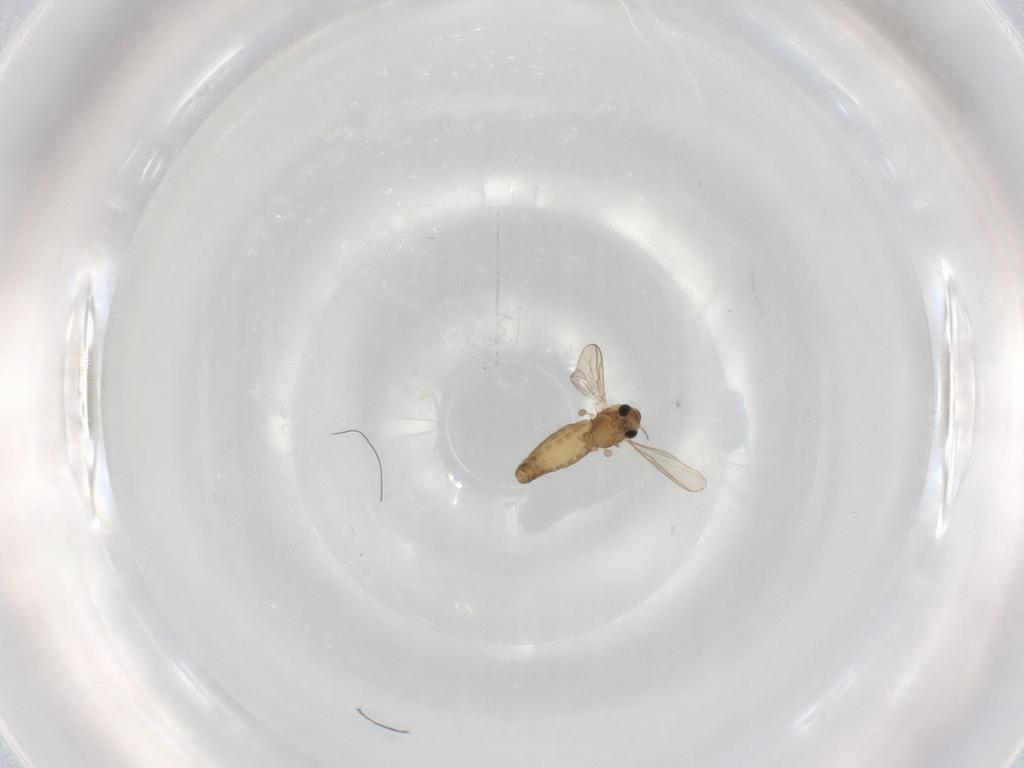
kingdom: Animalia
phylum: Arthropoda
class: Insecta
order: Diptera
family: Chironomidae
